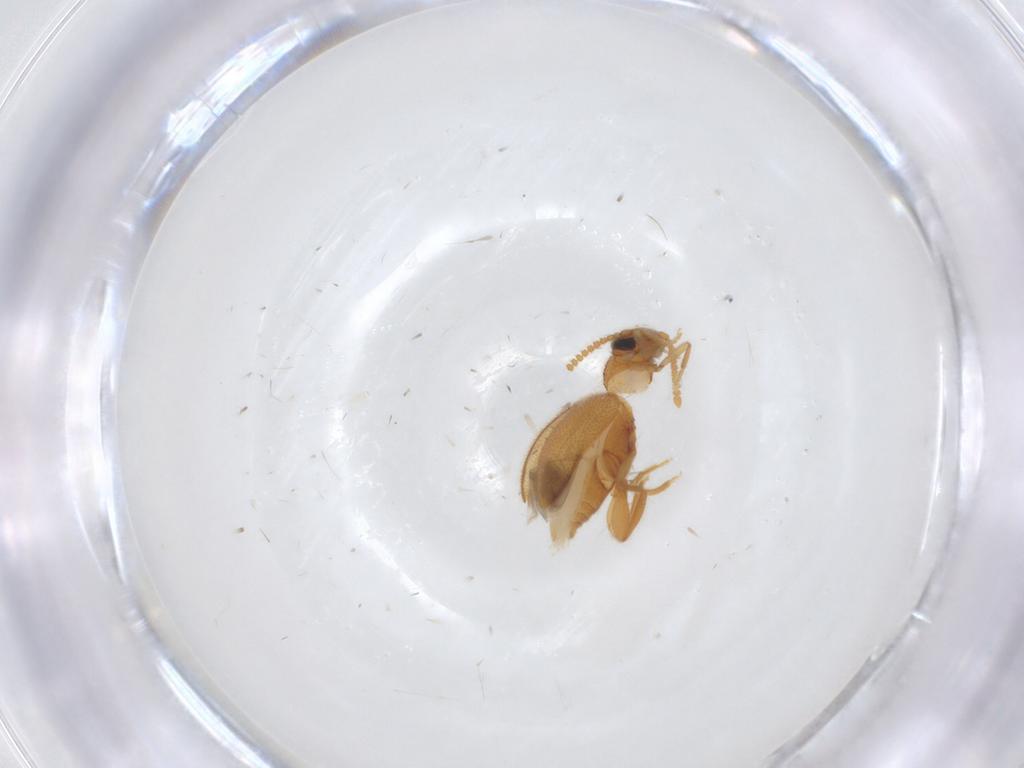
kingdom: Animalia
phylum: Arthropoda
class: Insecta
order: Coleoptera
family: Aderidae
